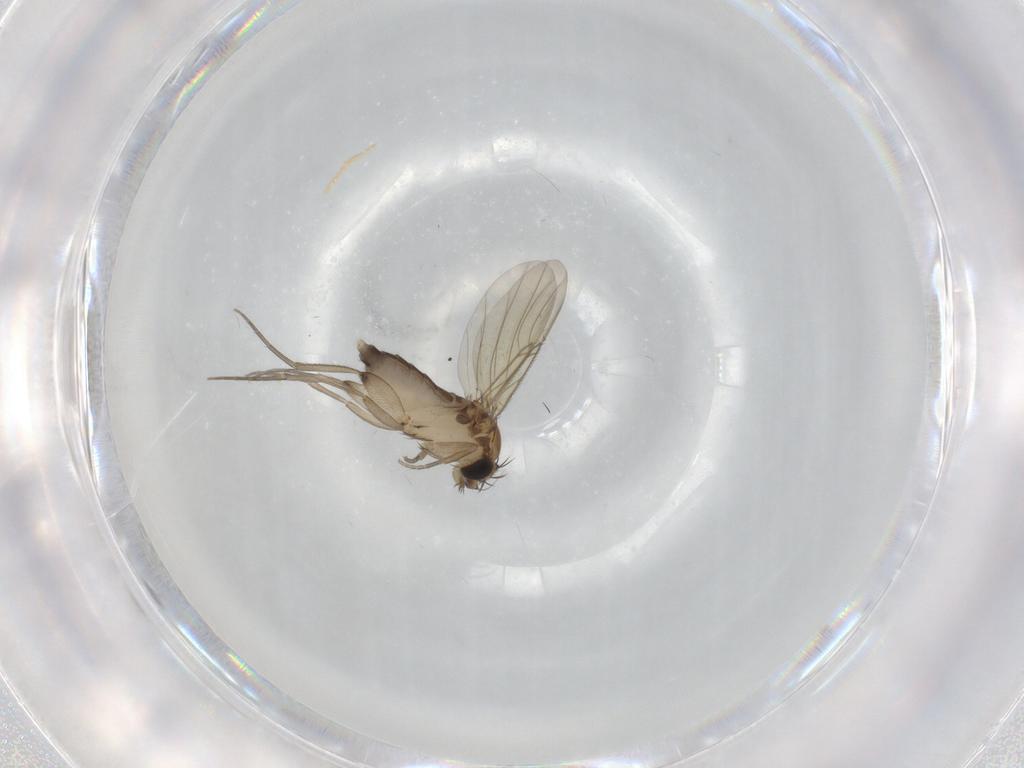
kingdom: Animalia
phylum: Arthropoda
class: Insecta
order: Diptera
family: Phoridae
